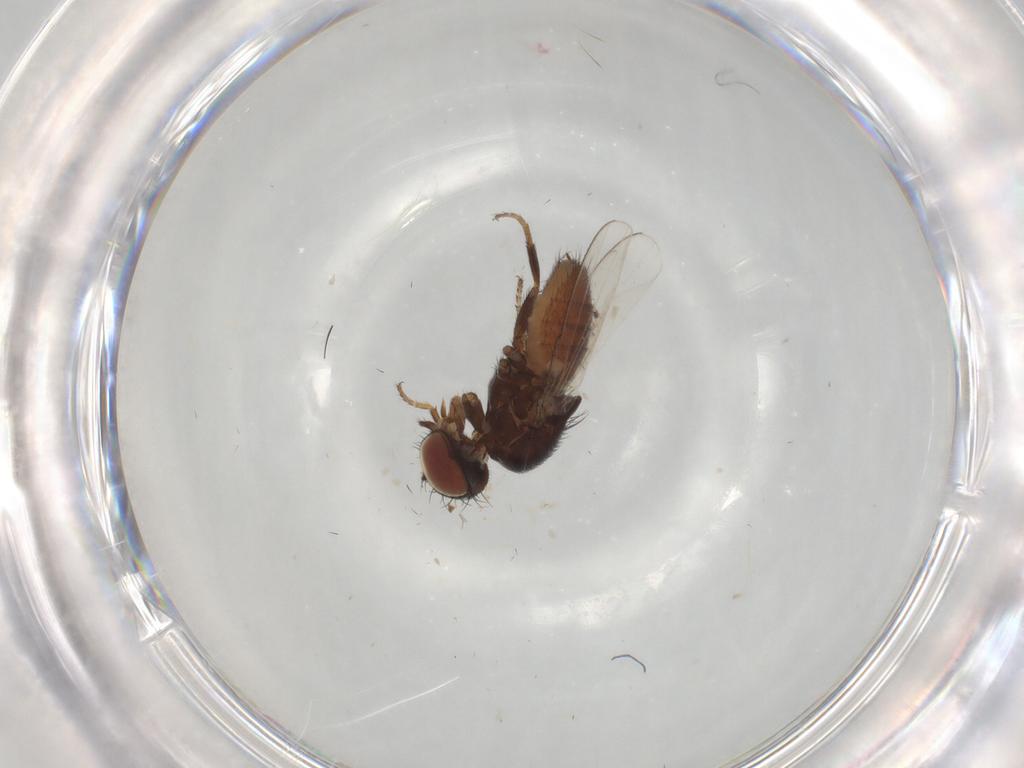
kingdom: Animalia
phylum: Arthropoda
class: Insecta
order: Diptera
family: Milichiidae
